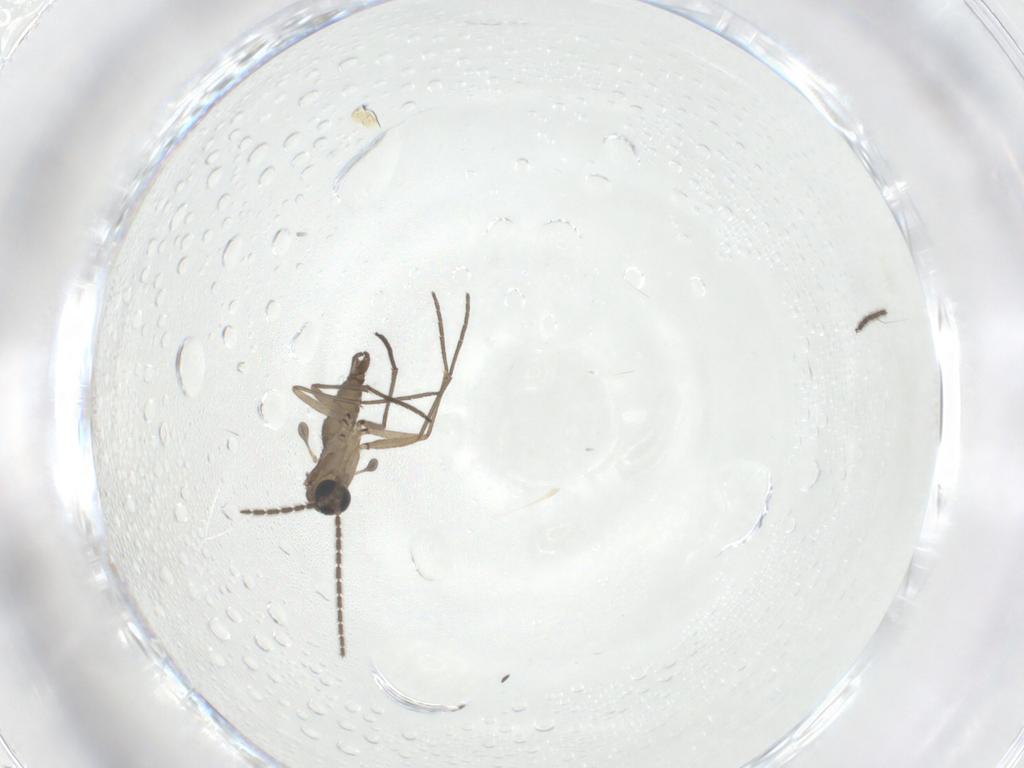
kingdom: Animalia
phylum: Arthropoda
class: Insecta
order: Diptera
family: Sciaridae
